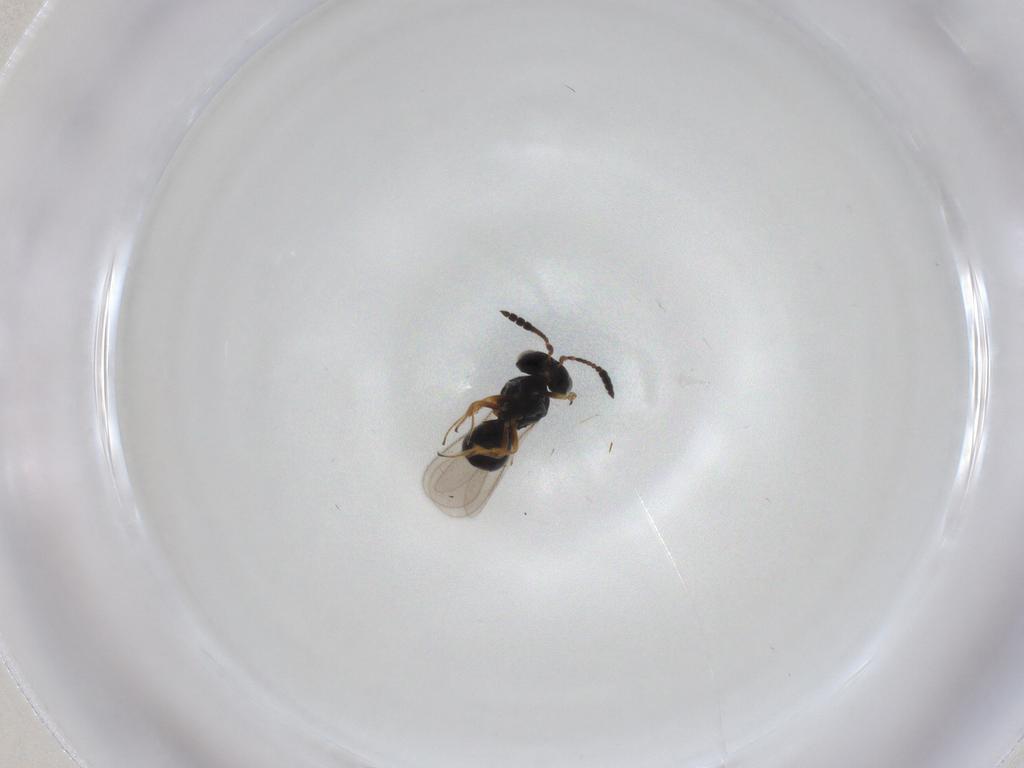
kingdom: Animalia
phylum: Arthropoda
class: Insecta
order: Hymenoptera
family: Scelionidae
